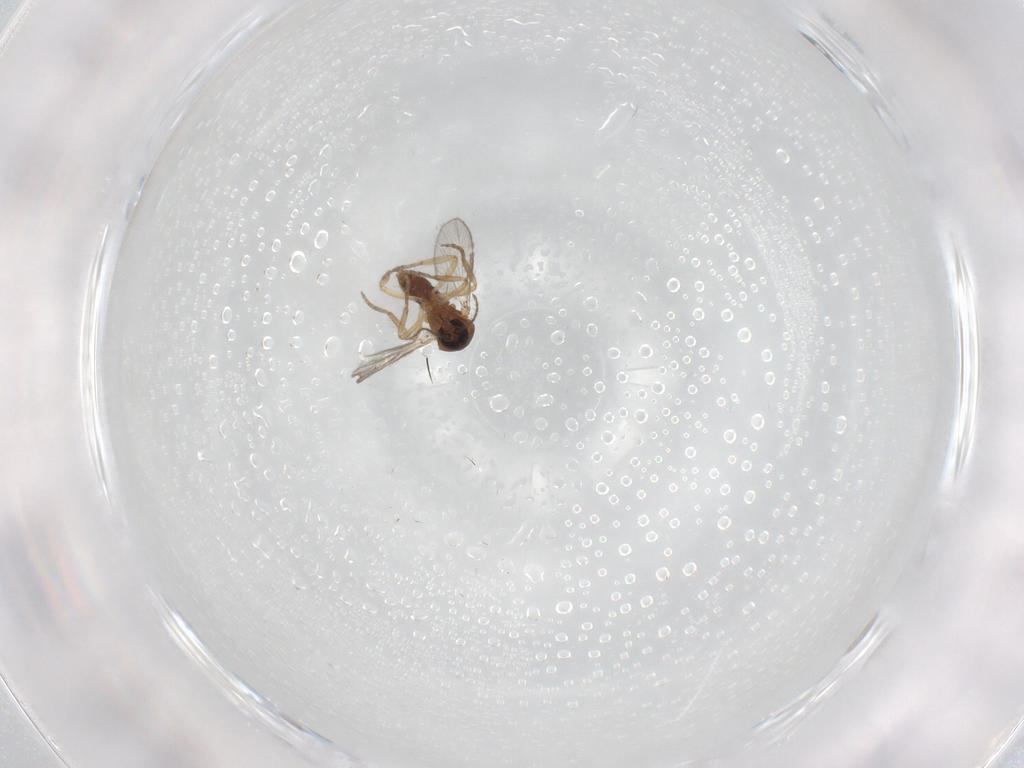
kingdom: Animalia
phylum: Arthropoda
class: Insecta
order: Diptera
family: Ceratopogonidae
